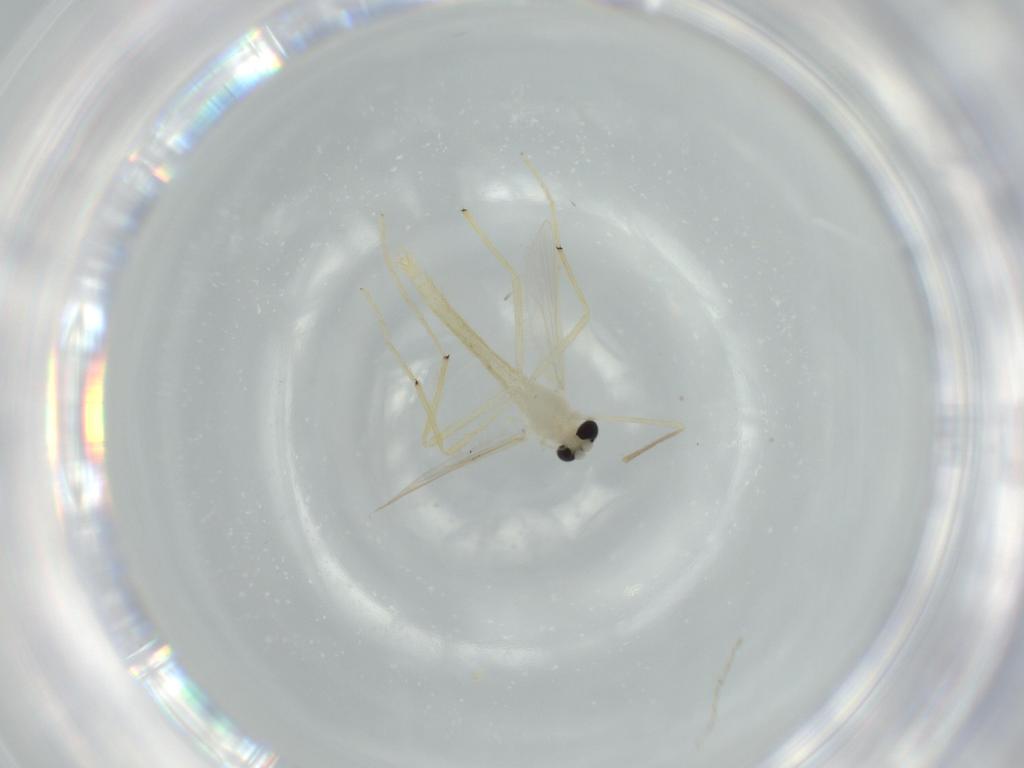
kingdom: Animalia
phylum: Arthropoda
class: Insecta
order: Diptera
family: Chironomidae
